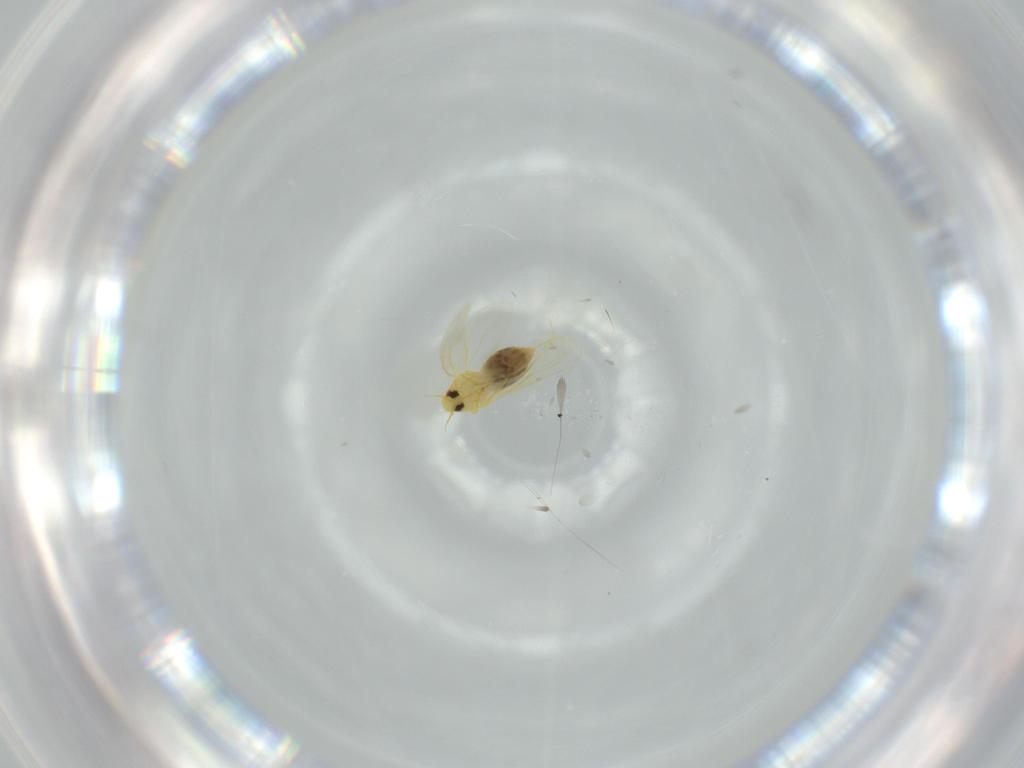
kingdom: Animalia
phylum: Arthropoda
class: Insecta
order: Hemiptera
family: Aleyrodidae
